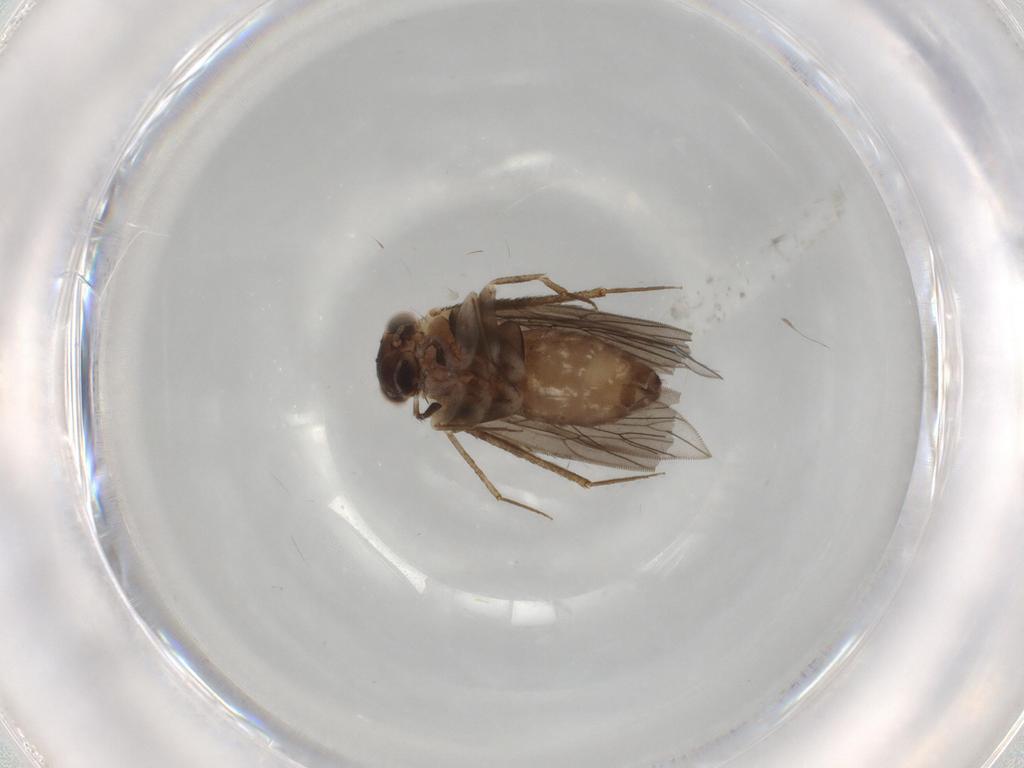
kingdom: Animalia
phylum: Arthropoda
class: Insecta
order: Psocodea
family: Lepidopsocidae
